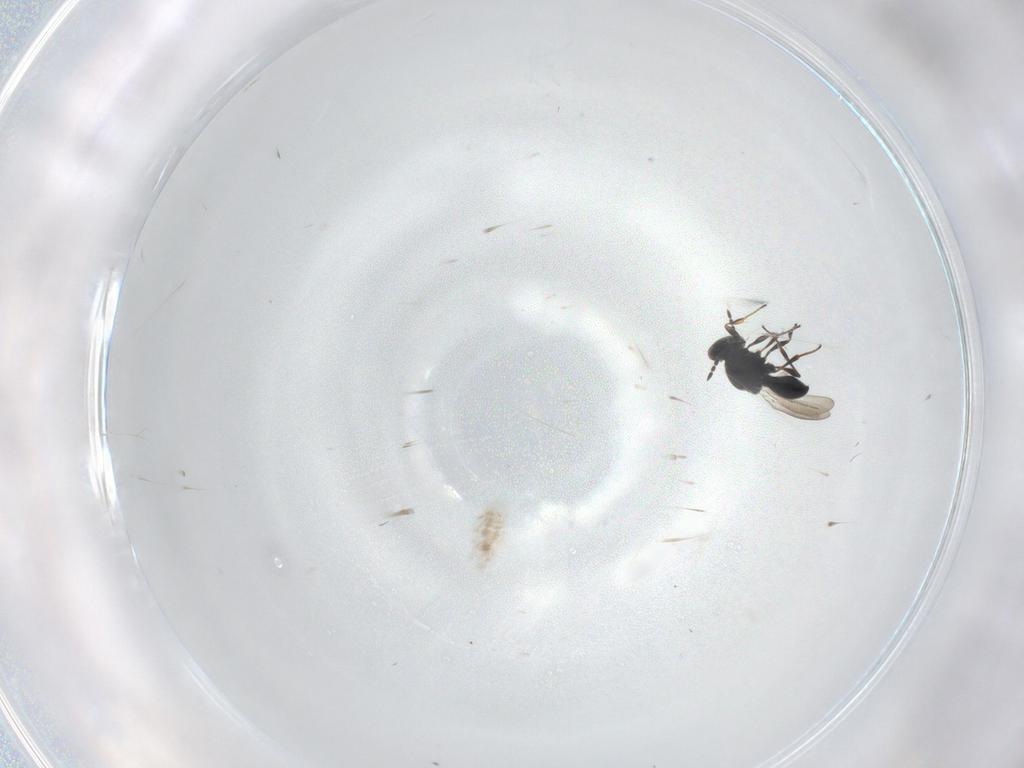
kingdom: Animalia
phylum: Arthropoda
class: Insecta
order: Hymenoptera
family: Platygastridae
